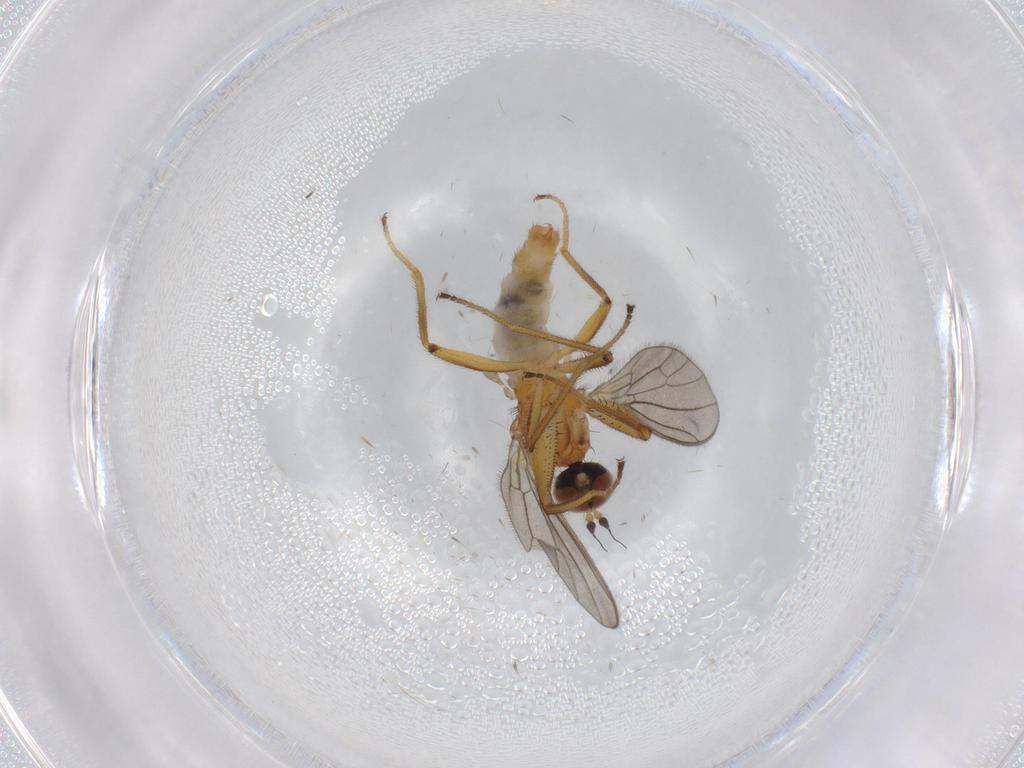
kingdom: Animalia
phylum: Arthropoda
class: Insecta
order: Diptera
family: Empididae
